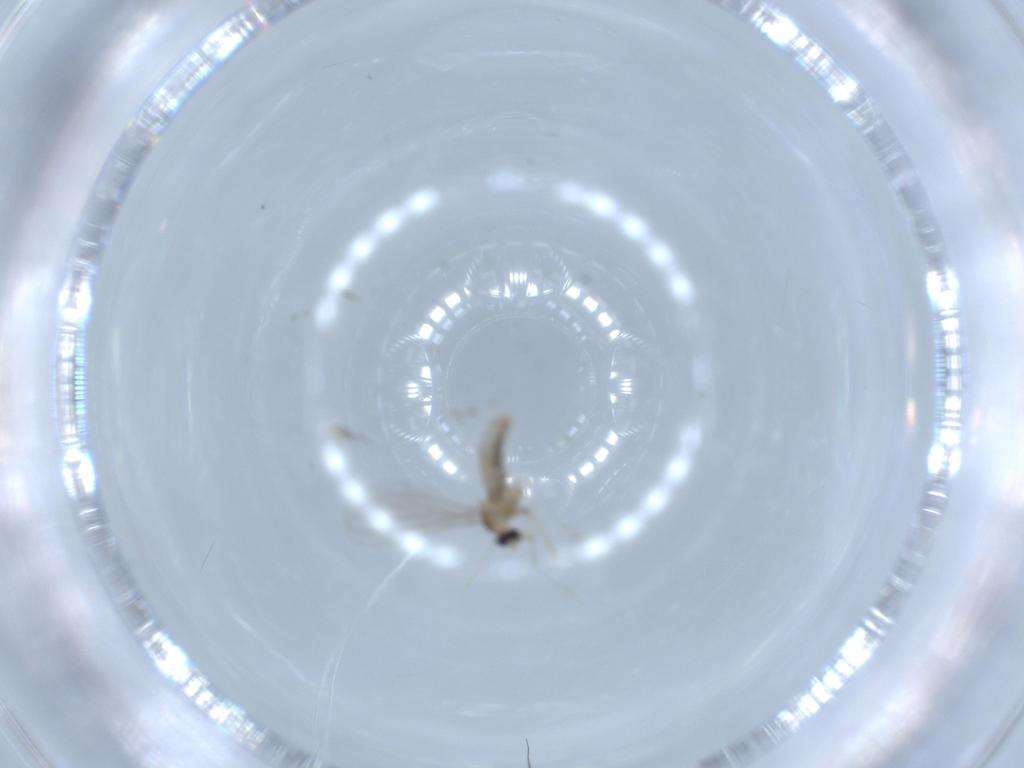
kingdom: Animalia
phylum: Arthropoda
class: Insecta
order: Diptera
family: Cecidomyiidae
